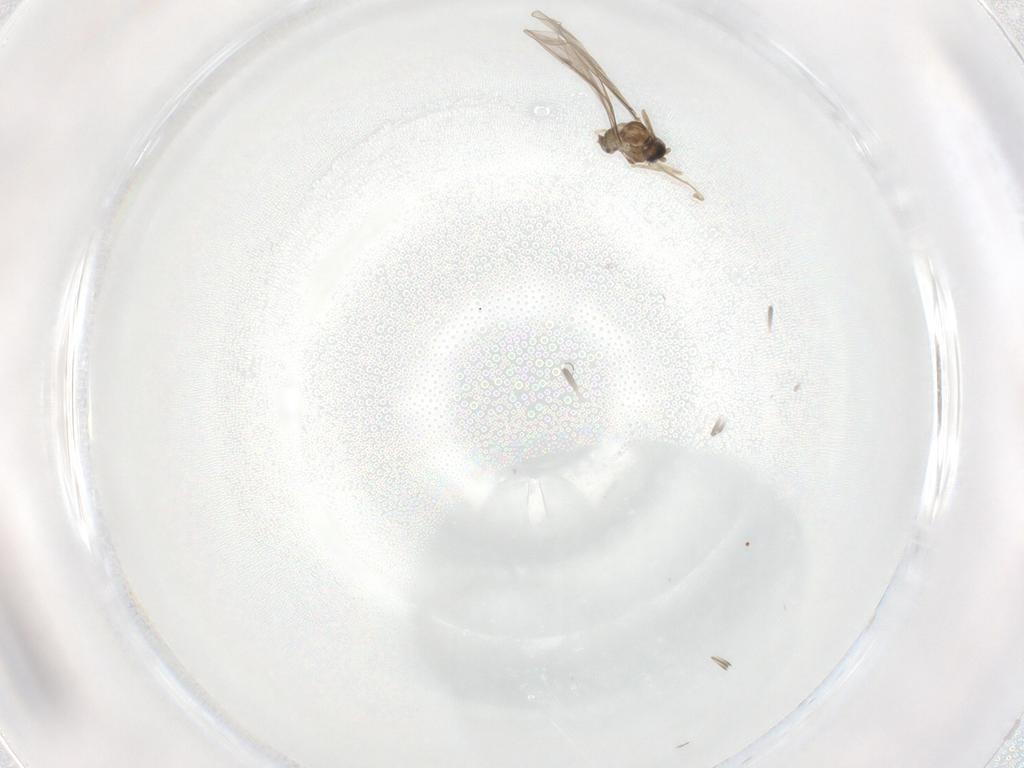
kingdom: Animalia
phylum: Arthropoda
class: Insecta
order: Diptera
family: Cecidomyiidae
